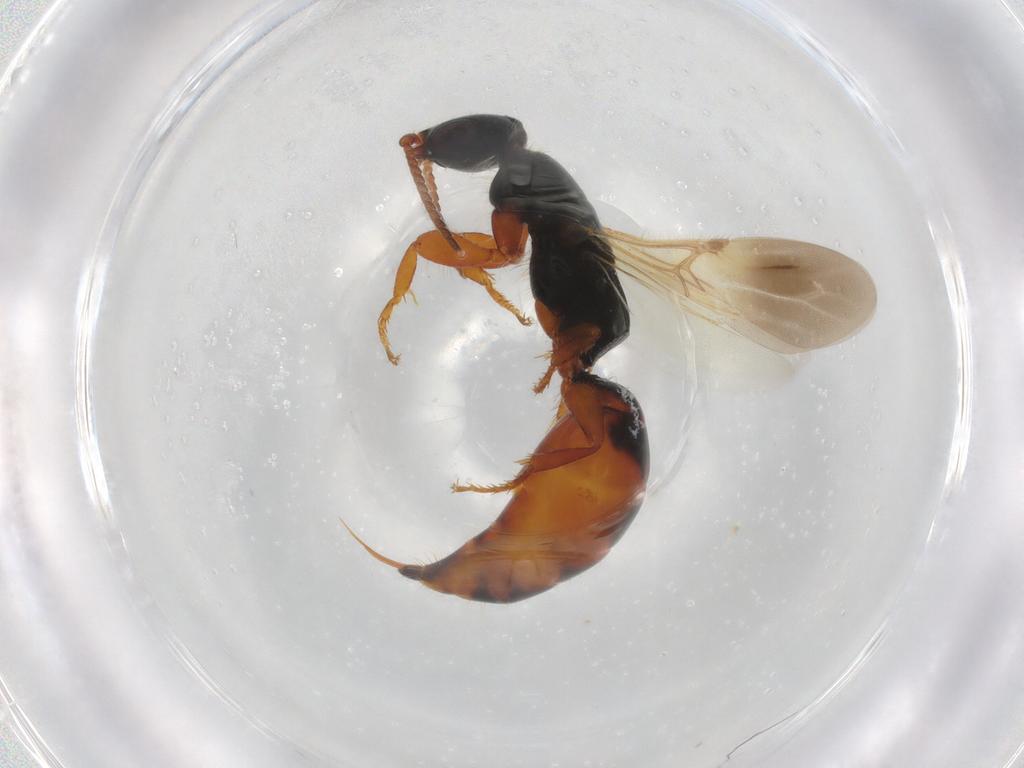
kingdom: Animalia
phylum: Arthropoda
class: Insecta
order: Hymenoptera
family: Bethylidae
